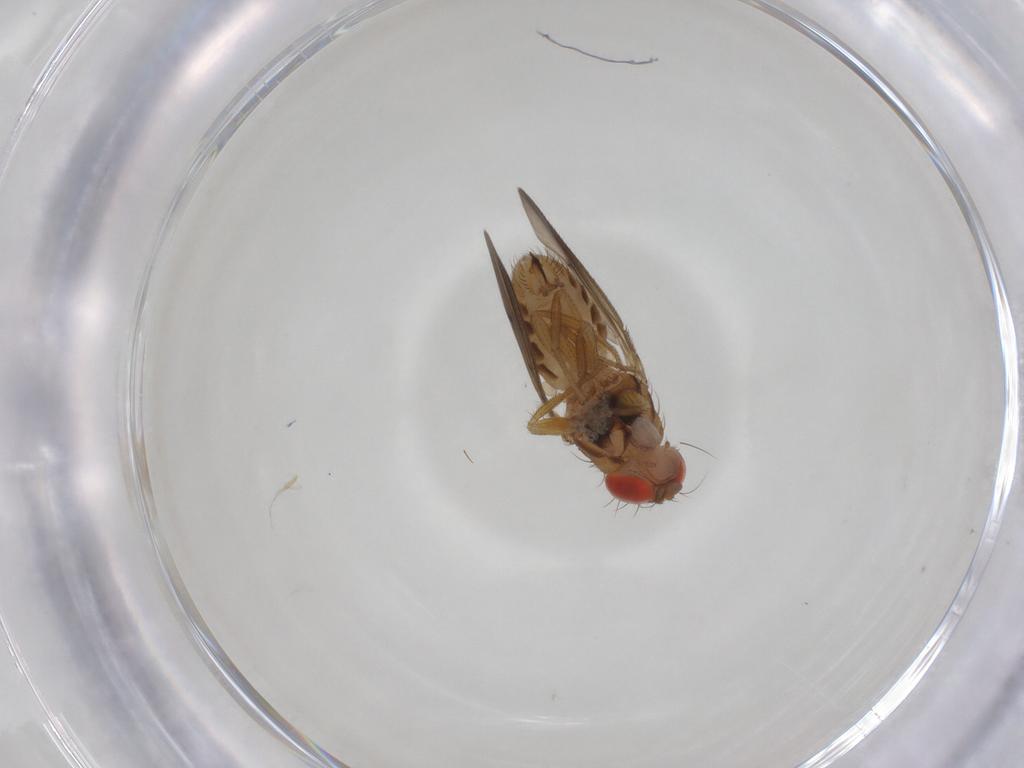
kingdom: Animalia
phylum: Arthropoda
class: Insecta
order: Diptera
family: Drosophilidae
